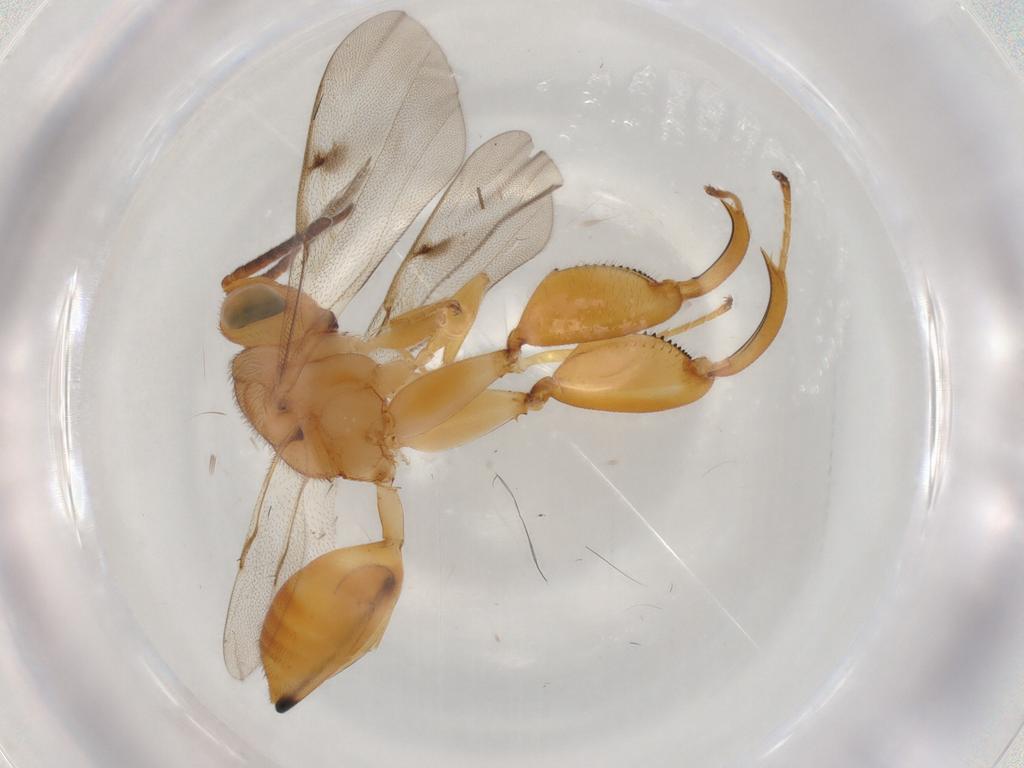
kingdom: Animalia
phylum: Arthropoda
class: Insecta
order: Hymenoptera
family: Chalcididae
